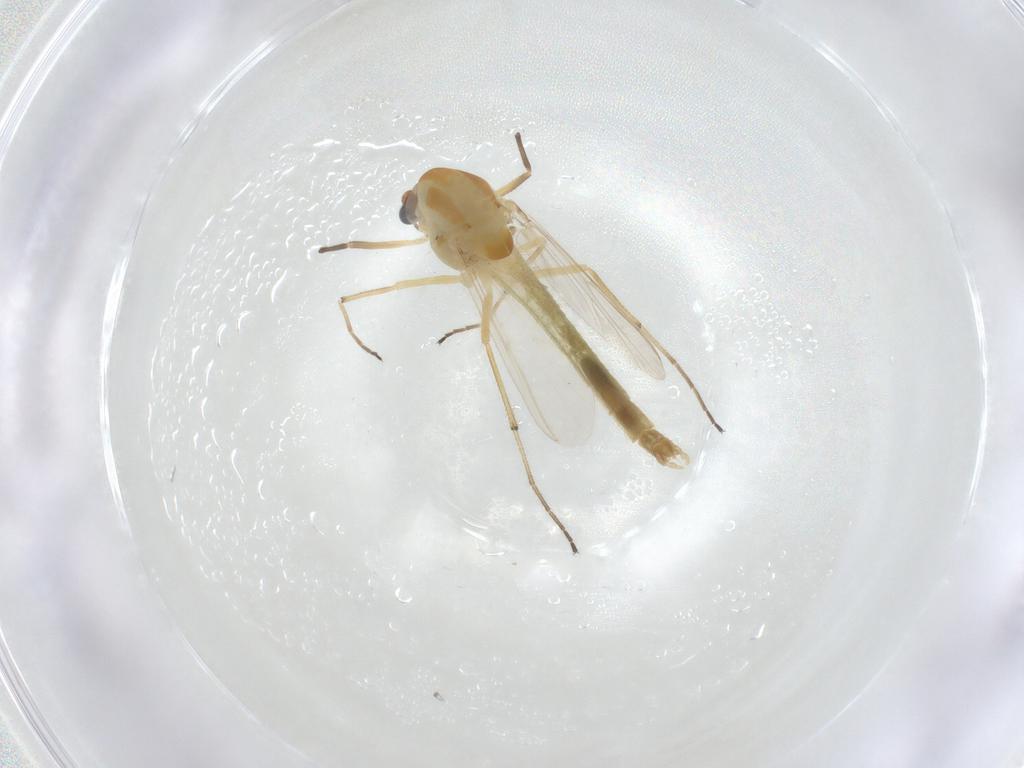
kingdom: Animalia
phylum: Arthropoda
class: Insecta
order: Diptera
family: Chironomidae
